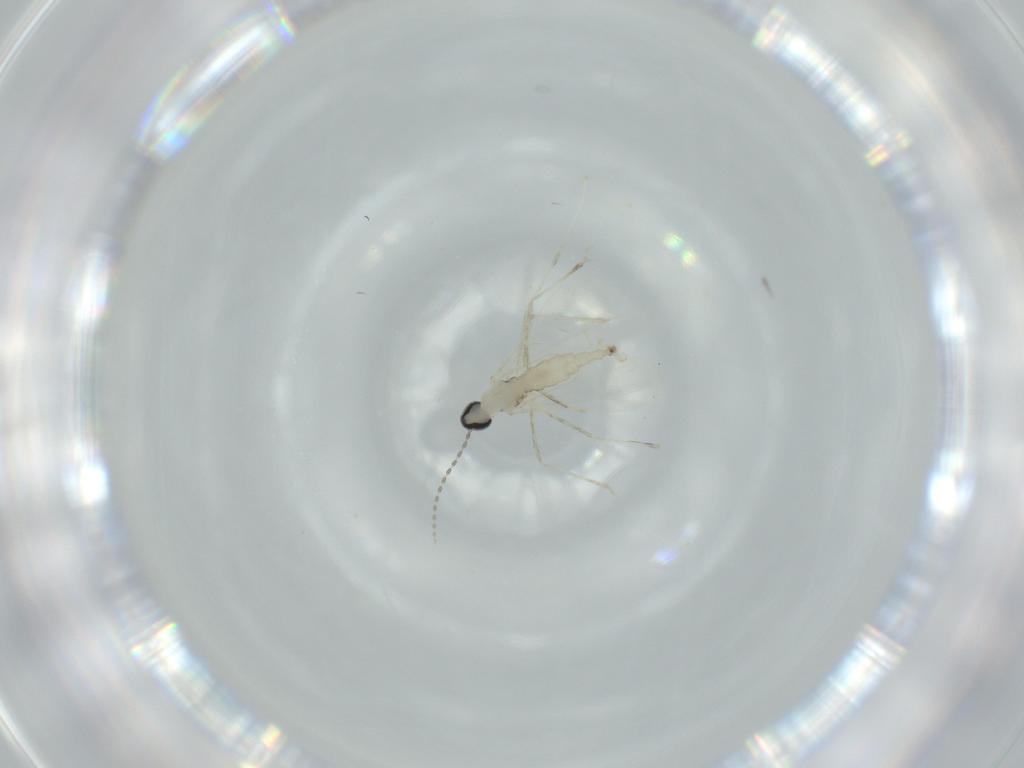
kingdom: Animalia
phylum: Arthropoda
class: Insecta
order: Diptera
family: Cecidomyiidae
